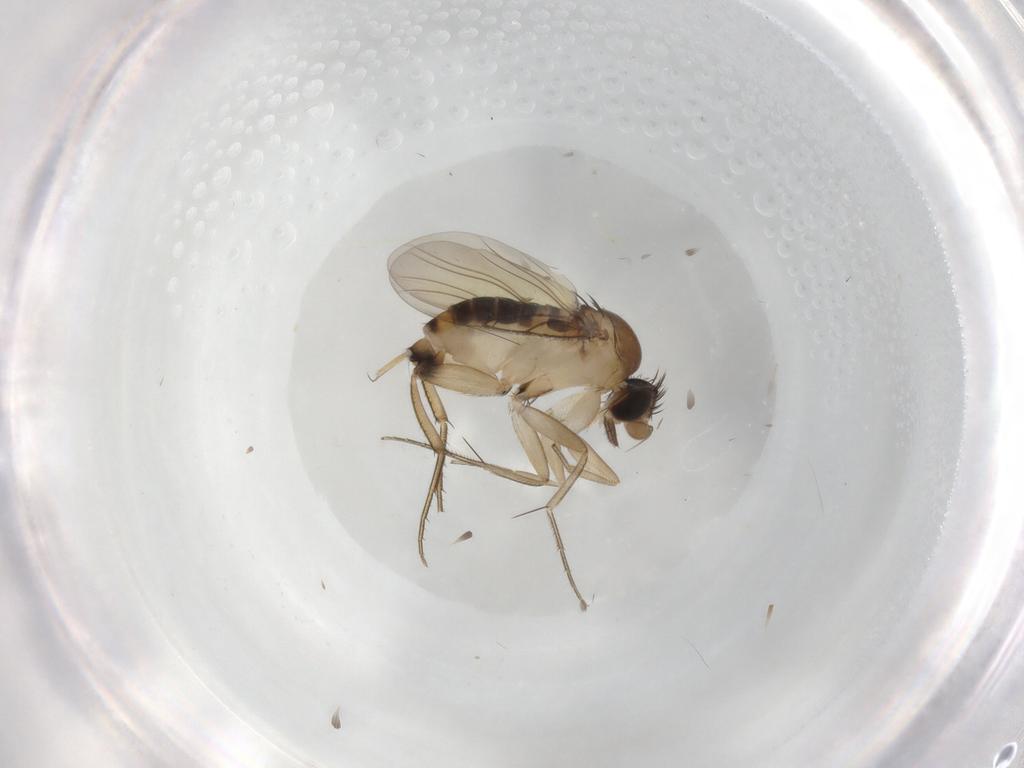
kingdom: Animalia
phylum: Arthropoda
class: Insecta
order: Diptera
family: Phoridae
